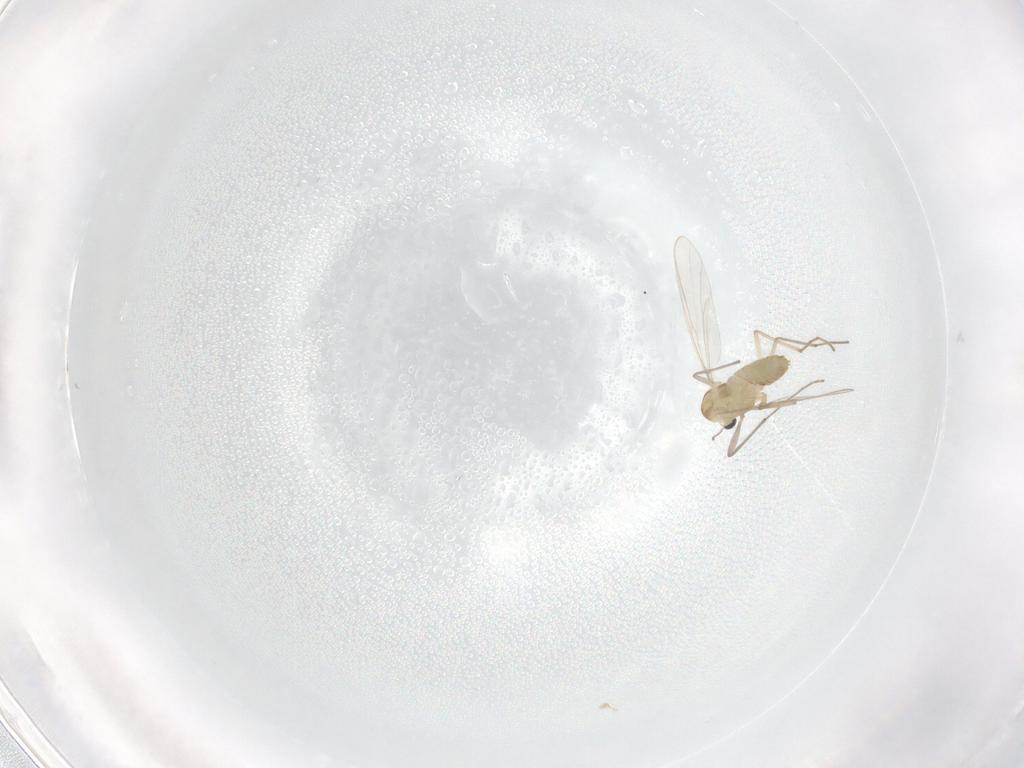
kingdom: Animalia
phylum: Arthropoda
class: Insecta
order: Diptera
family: Chironomidae
